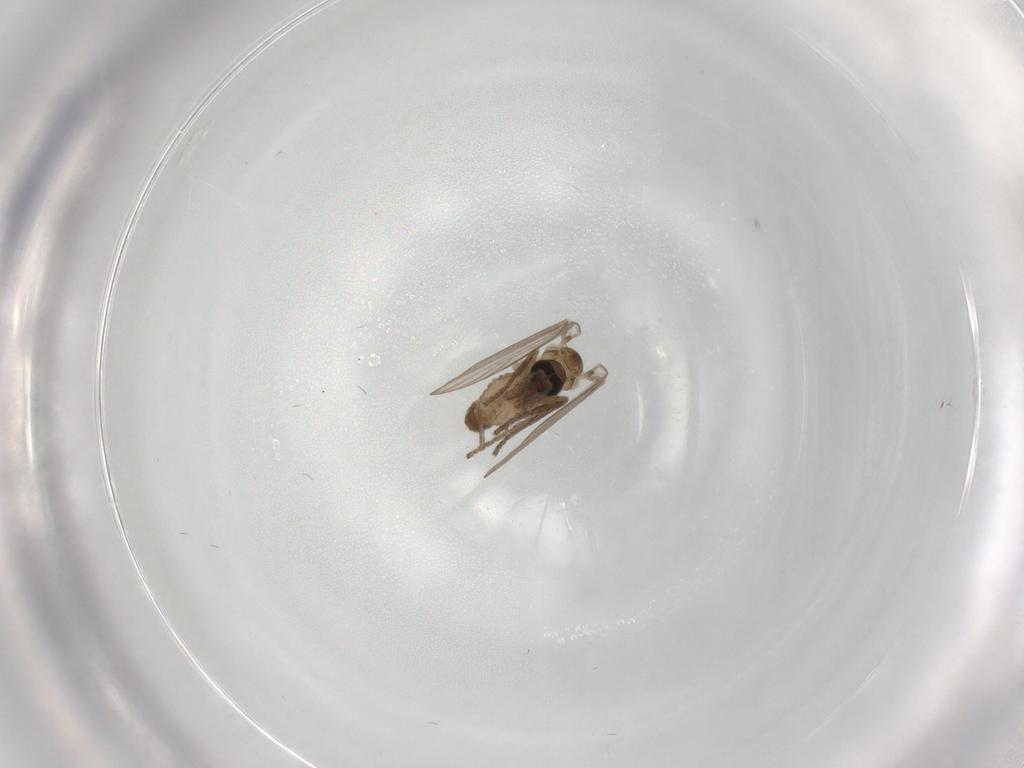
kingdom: Animalia
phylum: Arthropoda
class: Insecta
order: Diptera
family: Psychodidae
